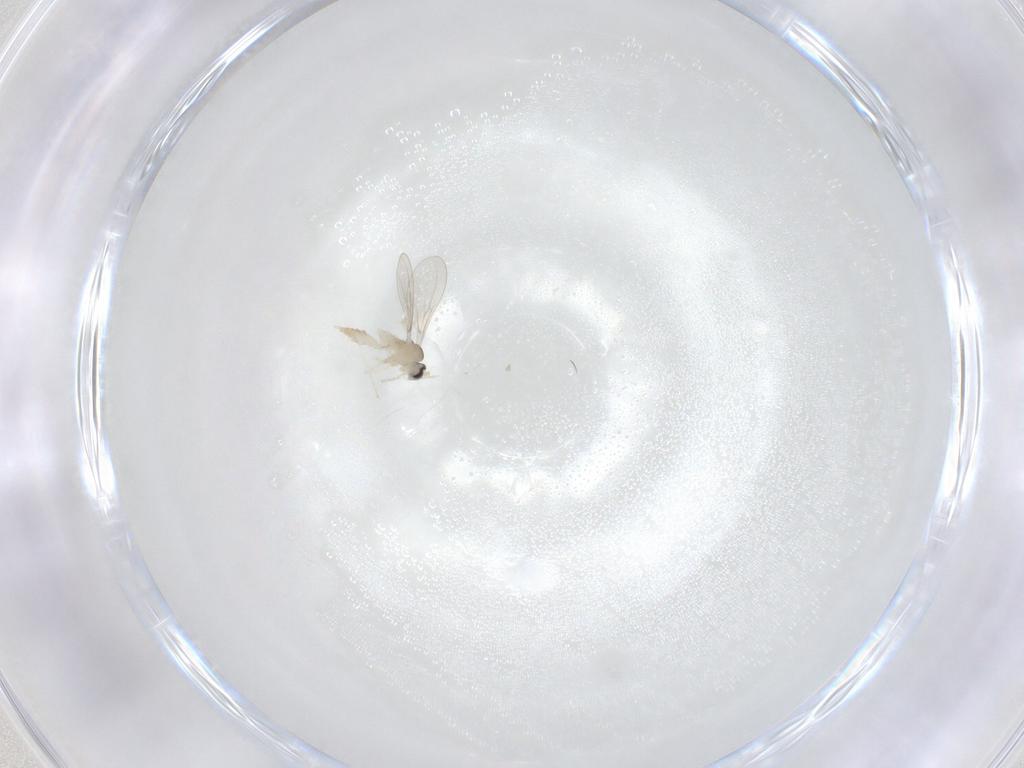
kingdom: Animalia
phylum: Arthropoda
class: Insecta
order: Diptera
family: Cecidomyiidae
